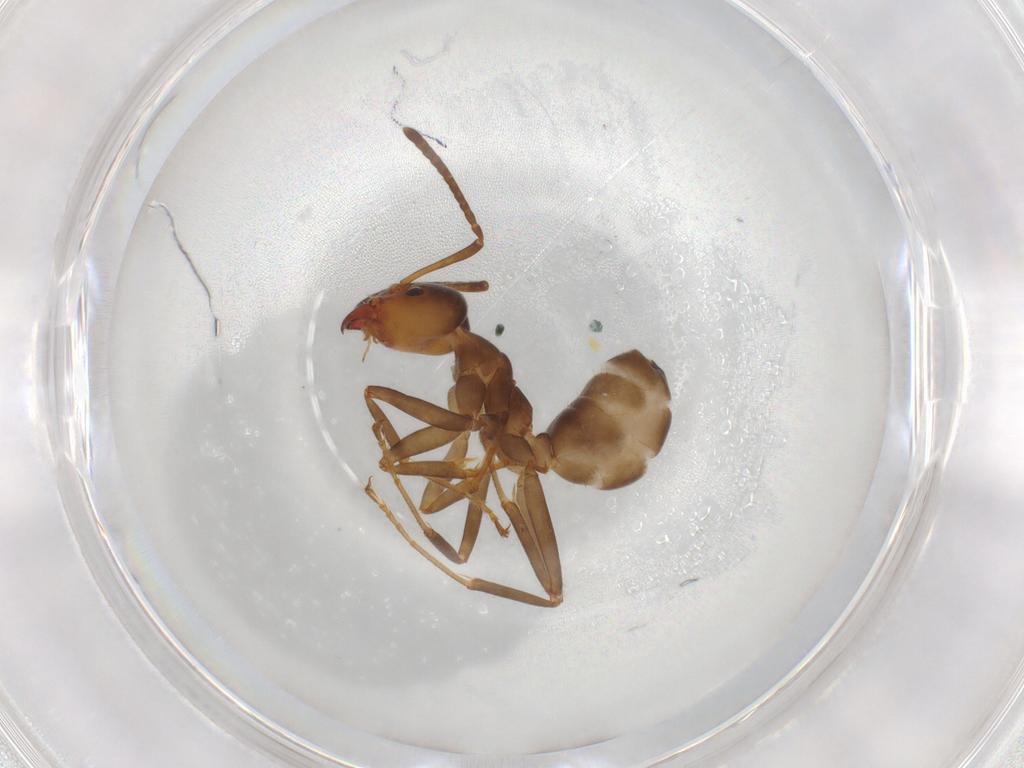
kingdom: Animalia
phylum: Arthropoda
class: Insecta
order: Hymenoptera
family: Formicidae
